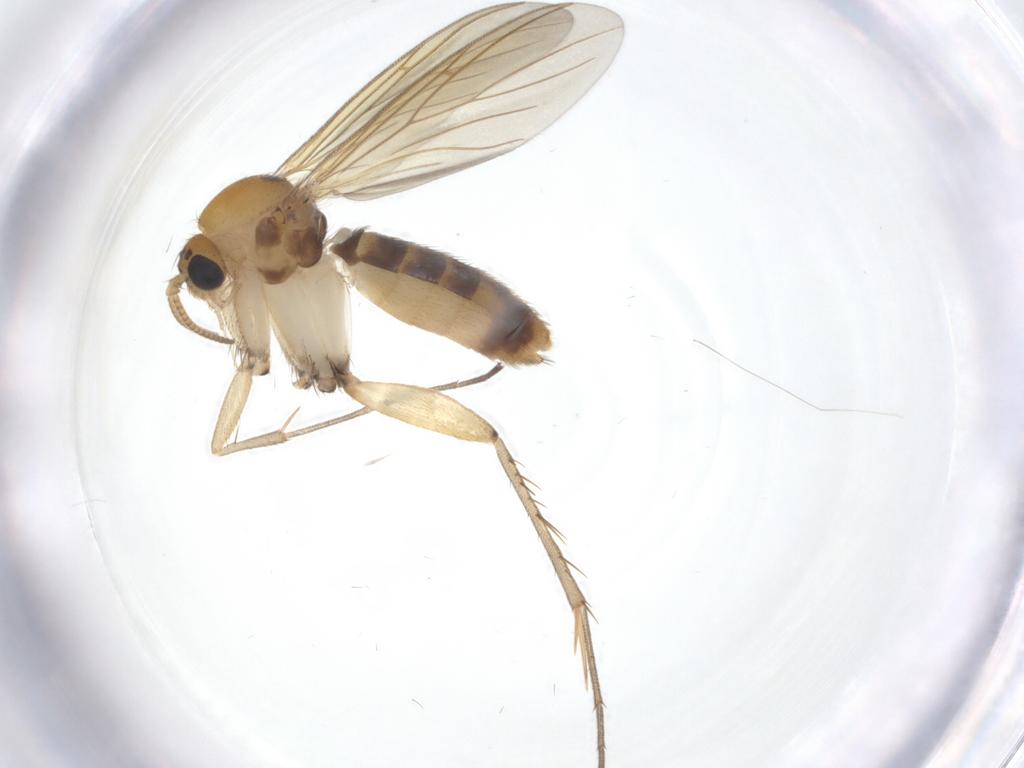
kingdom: Animalia
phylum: Arthropoda
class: Insecta
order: Diptera
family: Mycetophilidae
